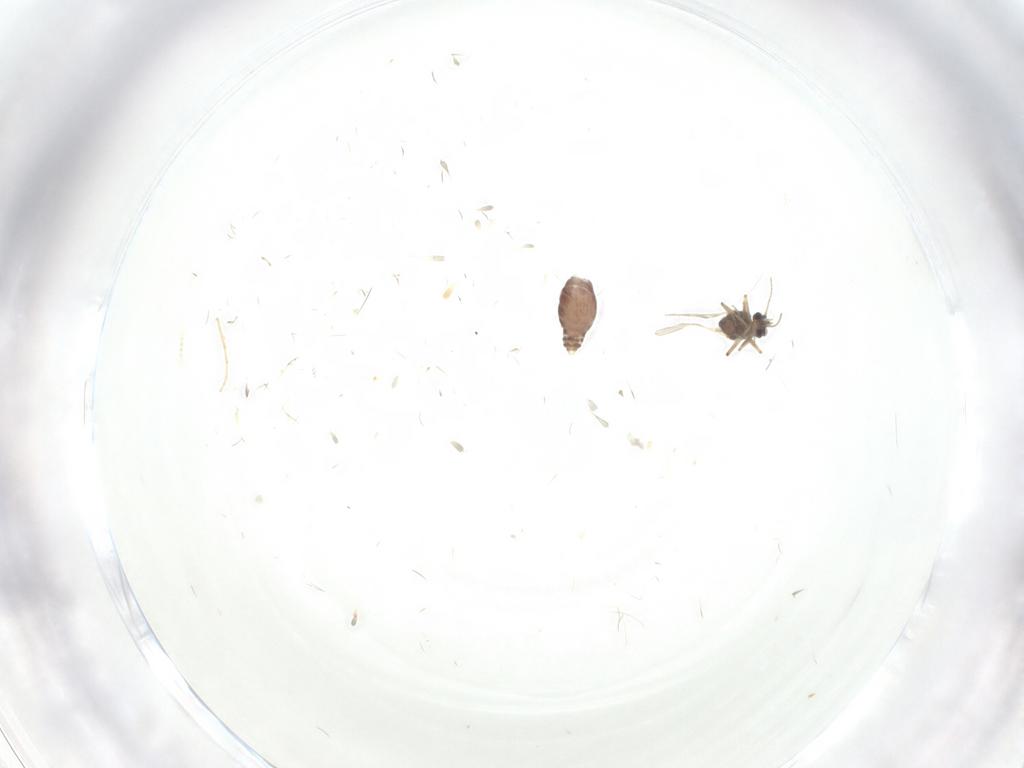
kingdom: Animalia
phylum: Arthropoda
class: Insecta
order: Diptera
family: Chironomidae
